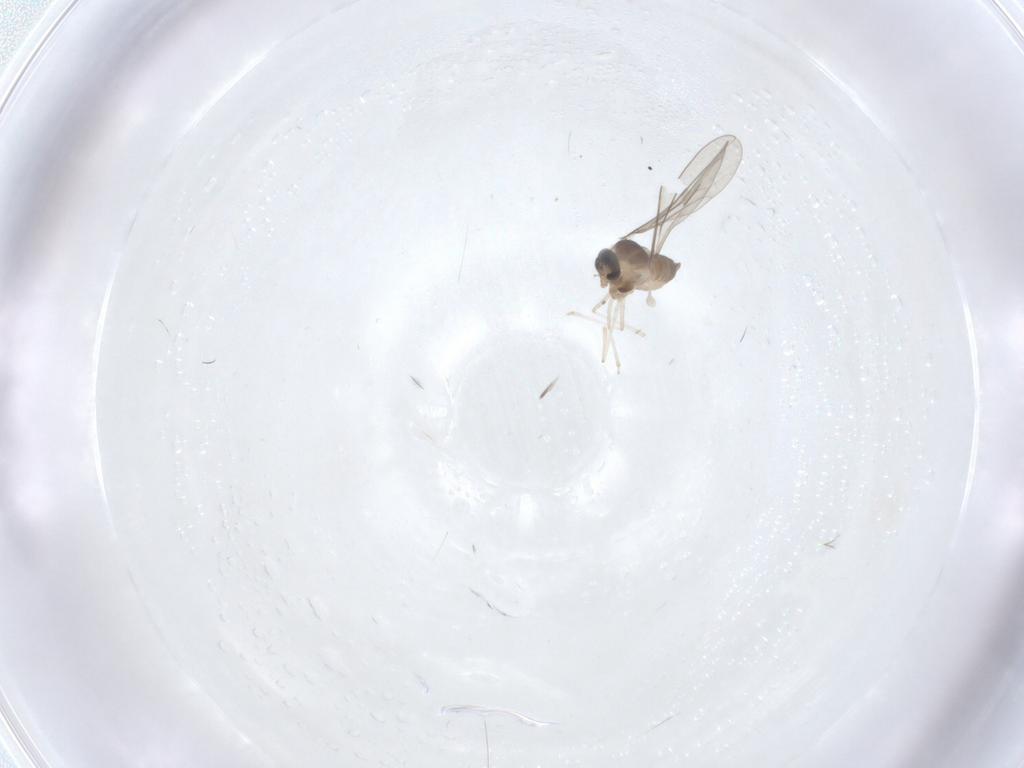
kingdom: Animalia
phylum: Arthropoda
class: Insecta
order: Diptera
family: Cecidomyiidae
